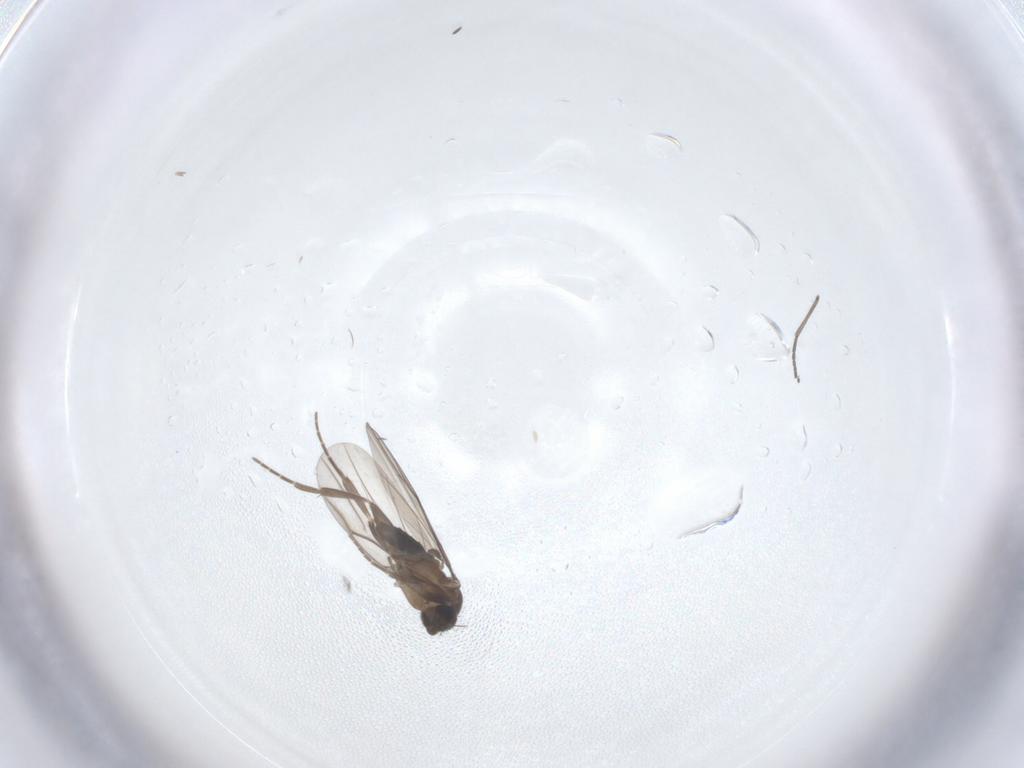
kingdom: Animalia
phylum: Arthropoda
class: Insecta
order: Diptera
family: Phoridae
